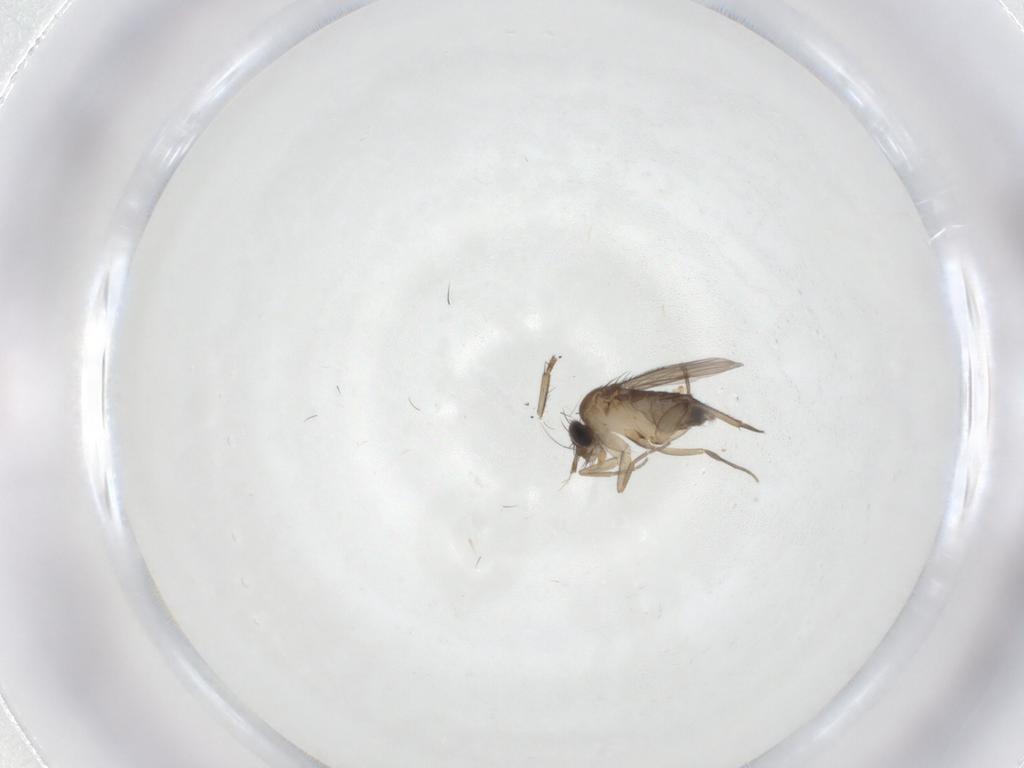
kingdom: Animalia
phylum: Arthropoda
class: Insecta
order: Diptera
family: Phoridae
